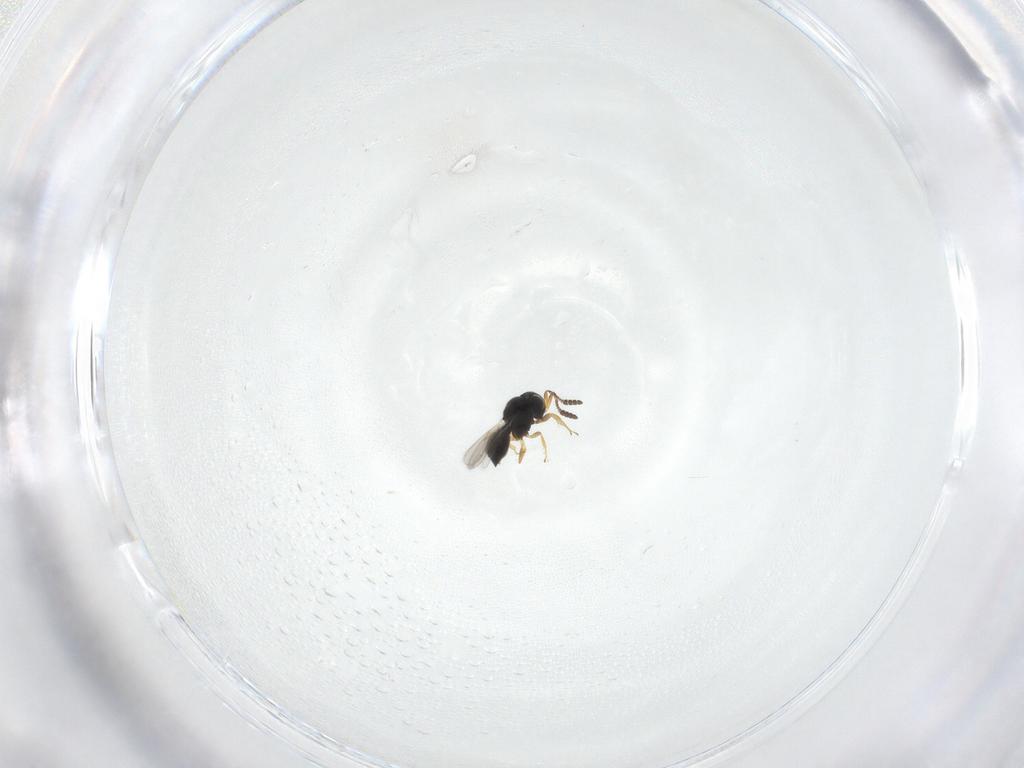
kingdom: Animalia
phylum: Arthropoda
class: Insecta
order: Hymenoptera
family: Scelionidae
